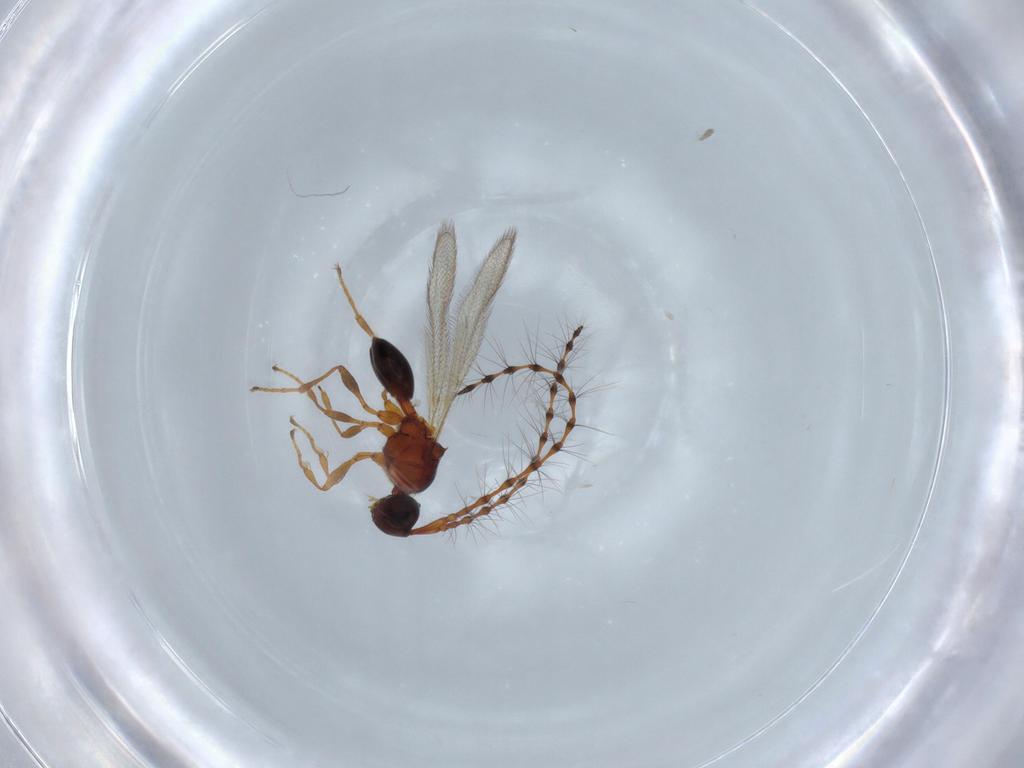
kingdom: Animalia
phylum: Arthropoda
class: Insecta
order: Hymenoptera
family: Diapriidae
